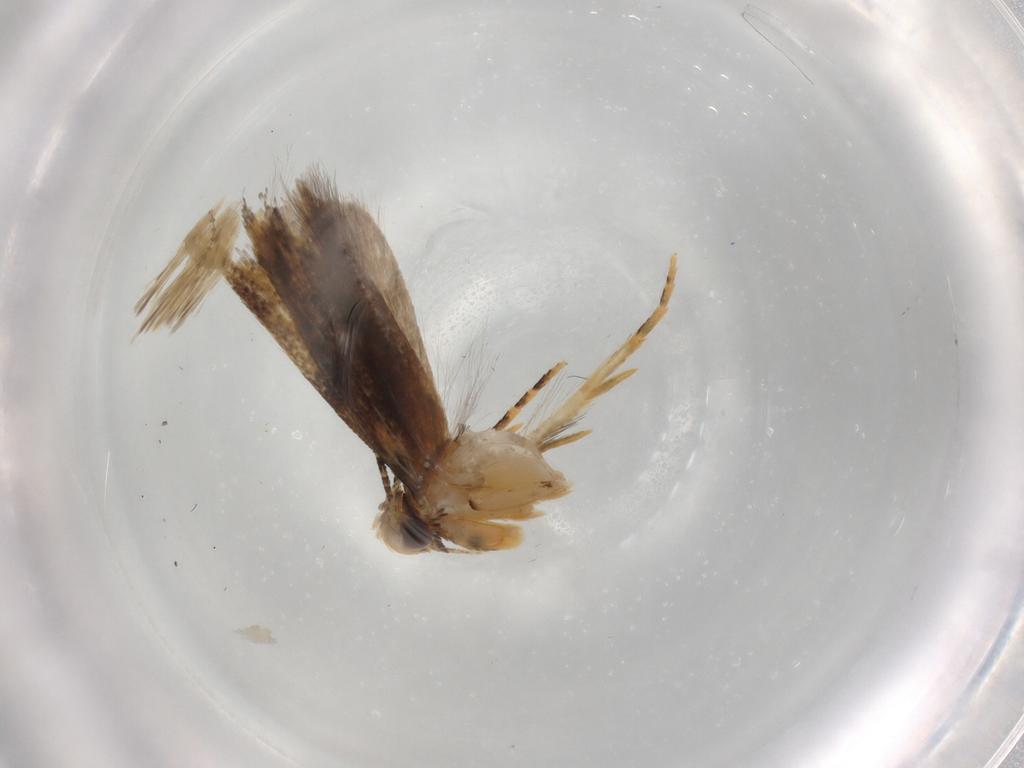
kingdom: Animalia
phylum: Arthropoda
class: Insecta
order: Lepidoptera
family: Gelechiidae
